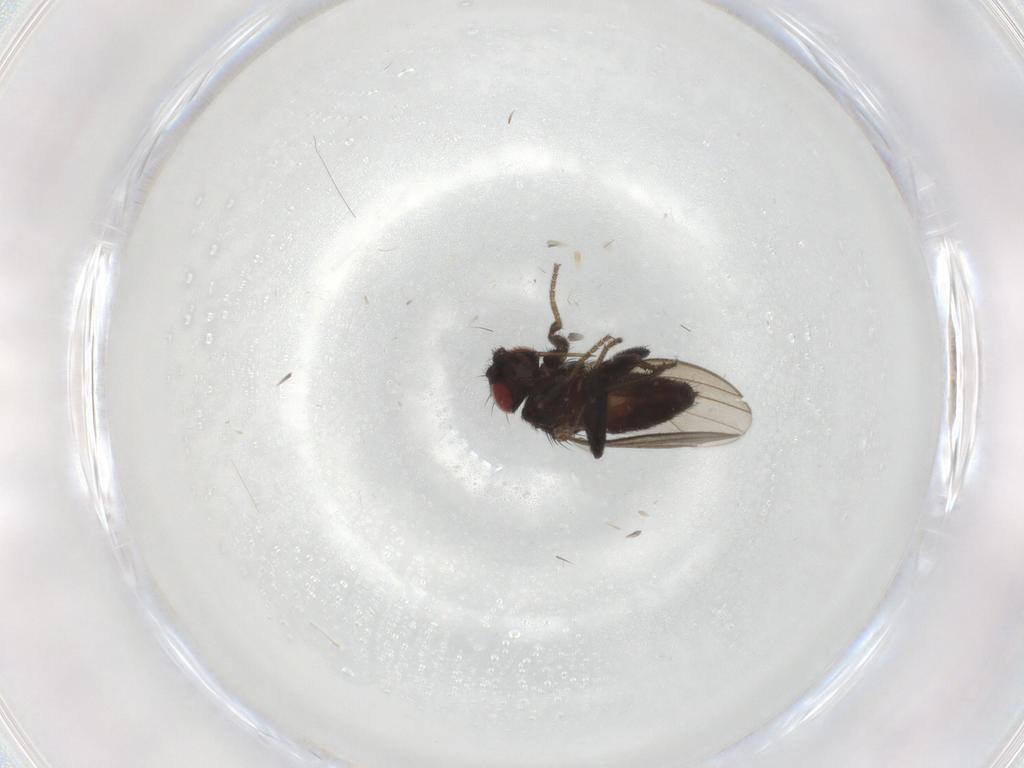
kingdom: Animalia
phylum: Arthropoda
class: Insecta
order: Diptera
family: Milichiidae
